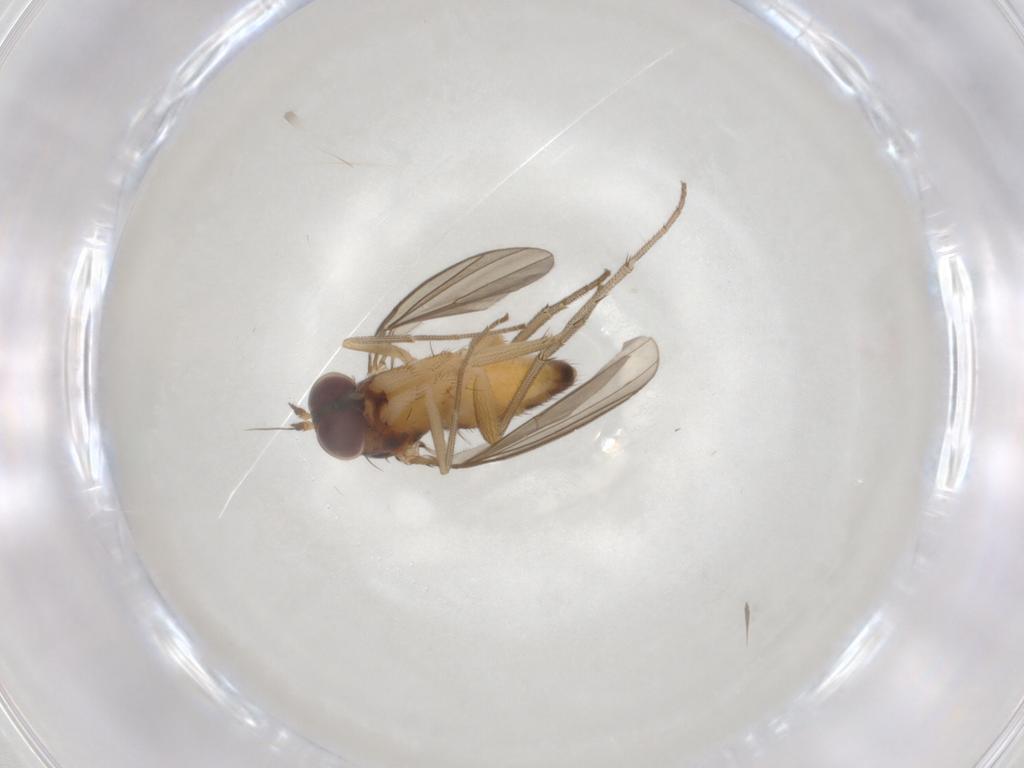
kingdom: Animalia
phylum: Arthropoda
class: Insecta
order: Diptera
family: Dolichopodidae
